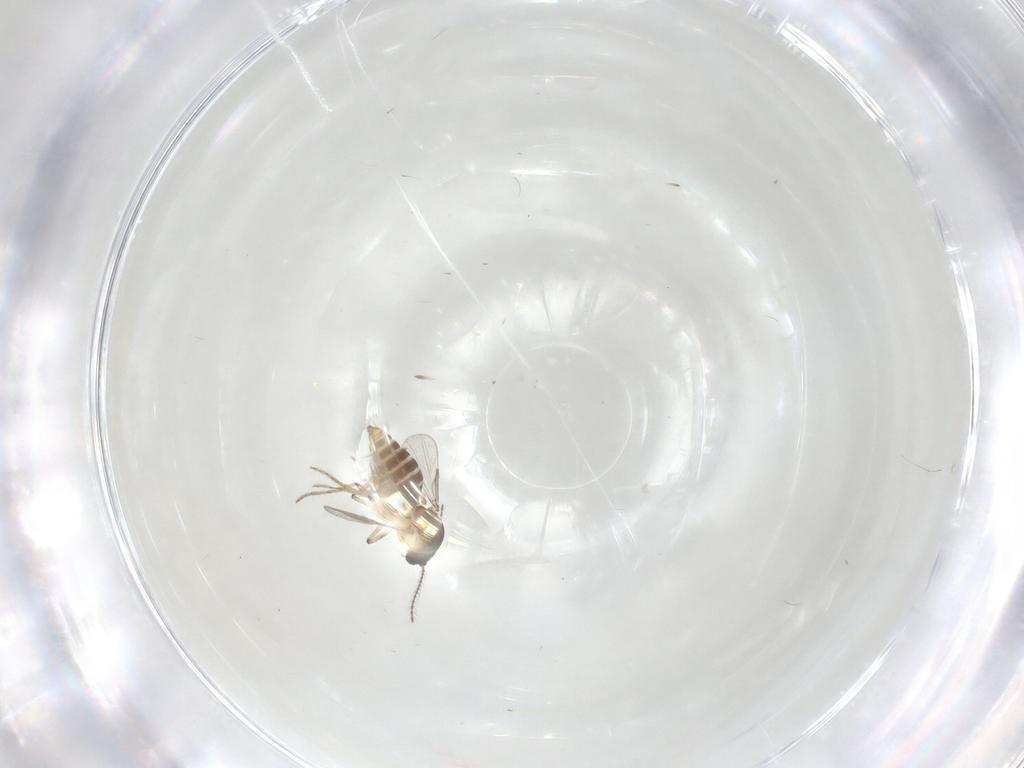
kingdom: Animalia
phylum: Arthropoda
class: Insecta
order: Diptera
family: Ceratopogonidae
